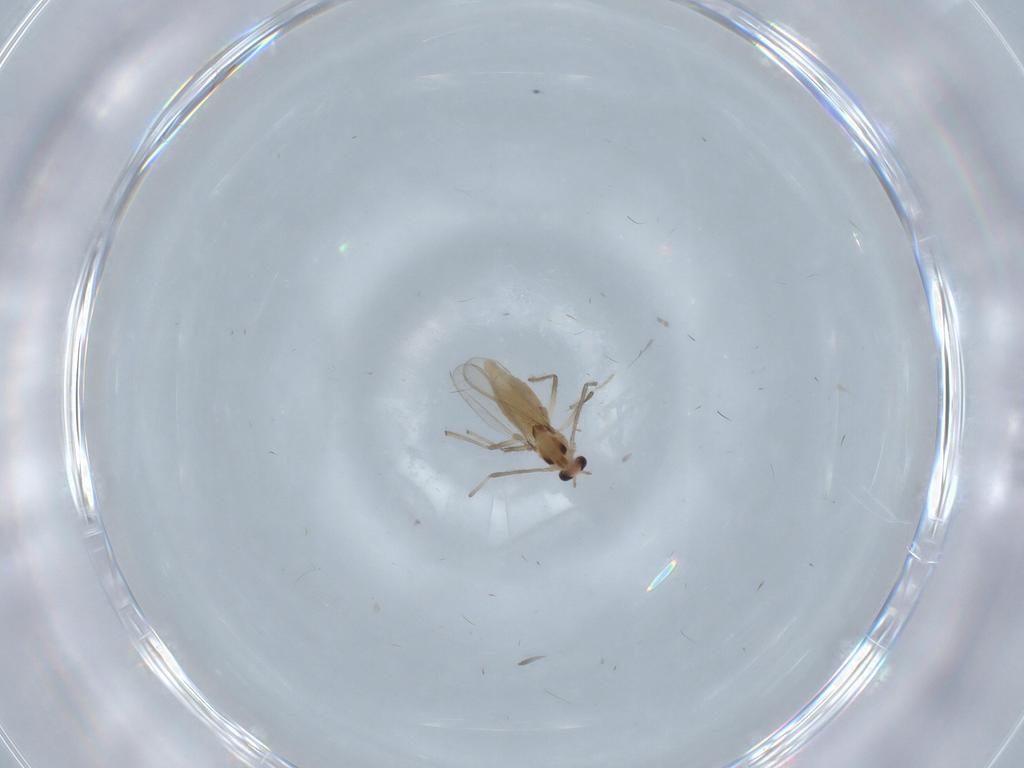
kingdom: Animalia
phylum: Arthropoda
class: Insecta
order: Diptera
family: Chironomidae
